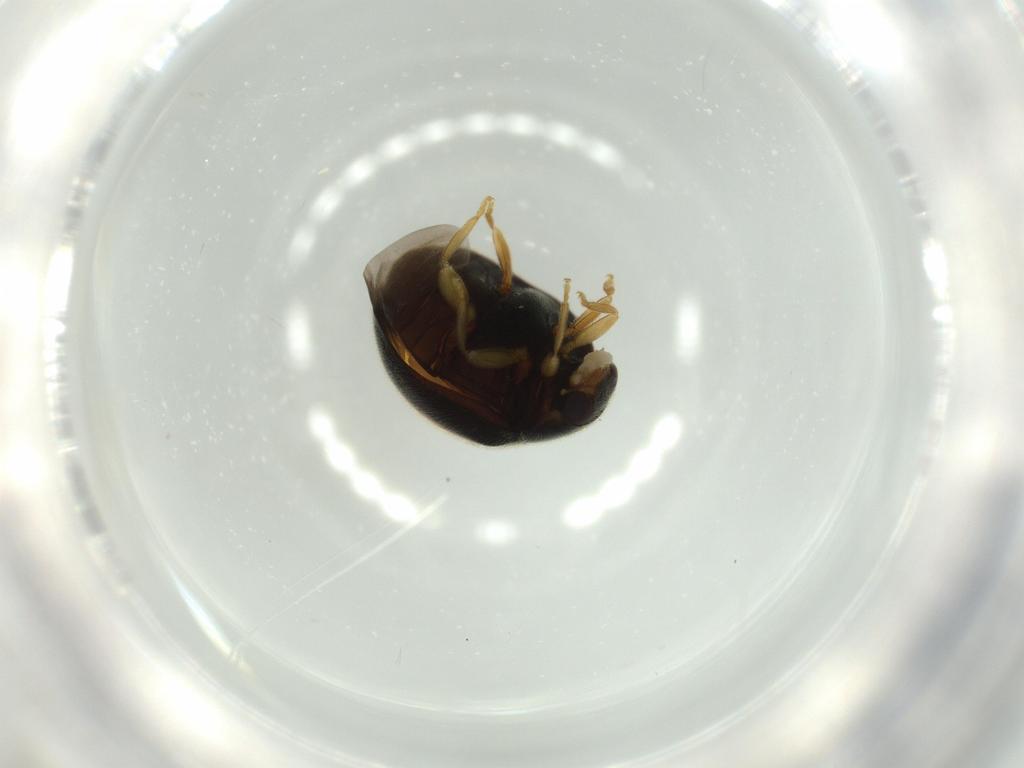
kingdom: Animalia
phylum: Arthropoda
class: Insecta
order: Coleoptera
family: Coccinellidae
